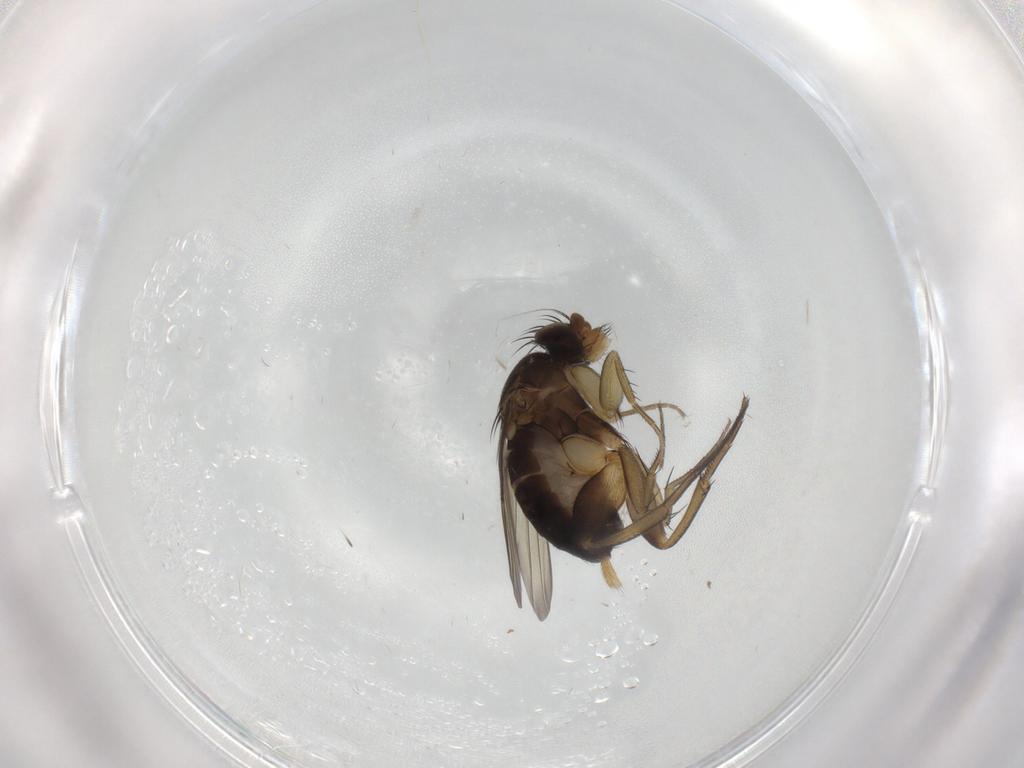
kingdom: Animalia
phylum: Arthropoda
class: Insecta
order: Diptera
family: Phoridae
